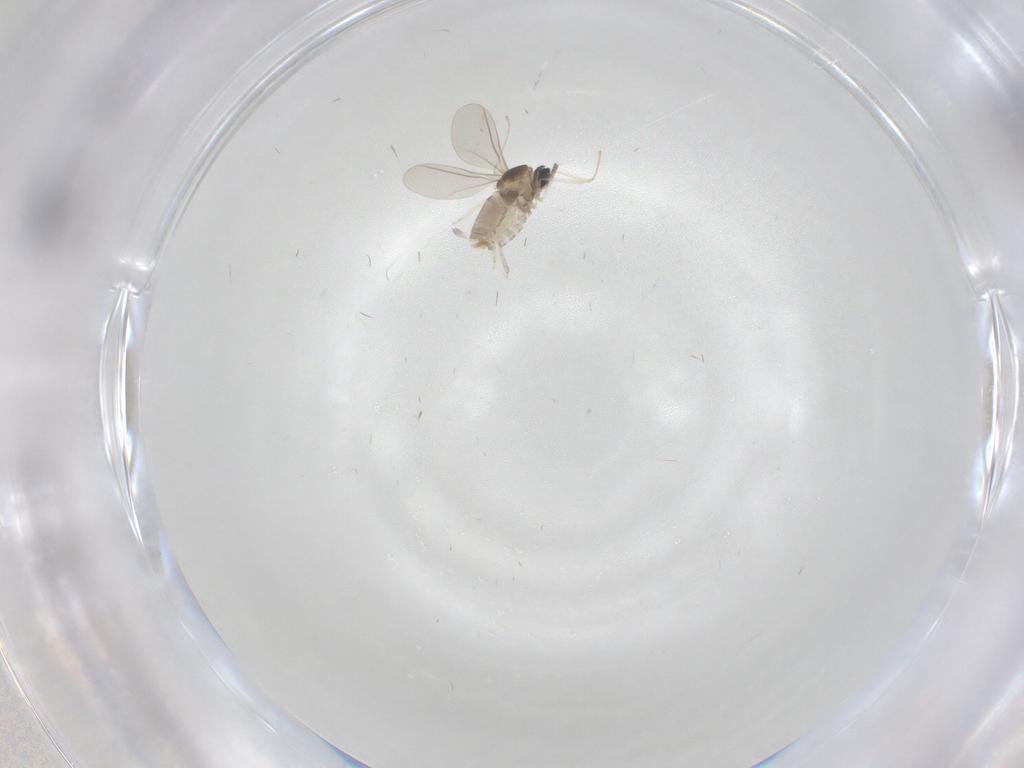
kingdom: Animalia
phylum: Arthropoda
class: Insecta
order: Diptera
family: Cecidomyiidae
